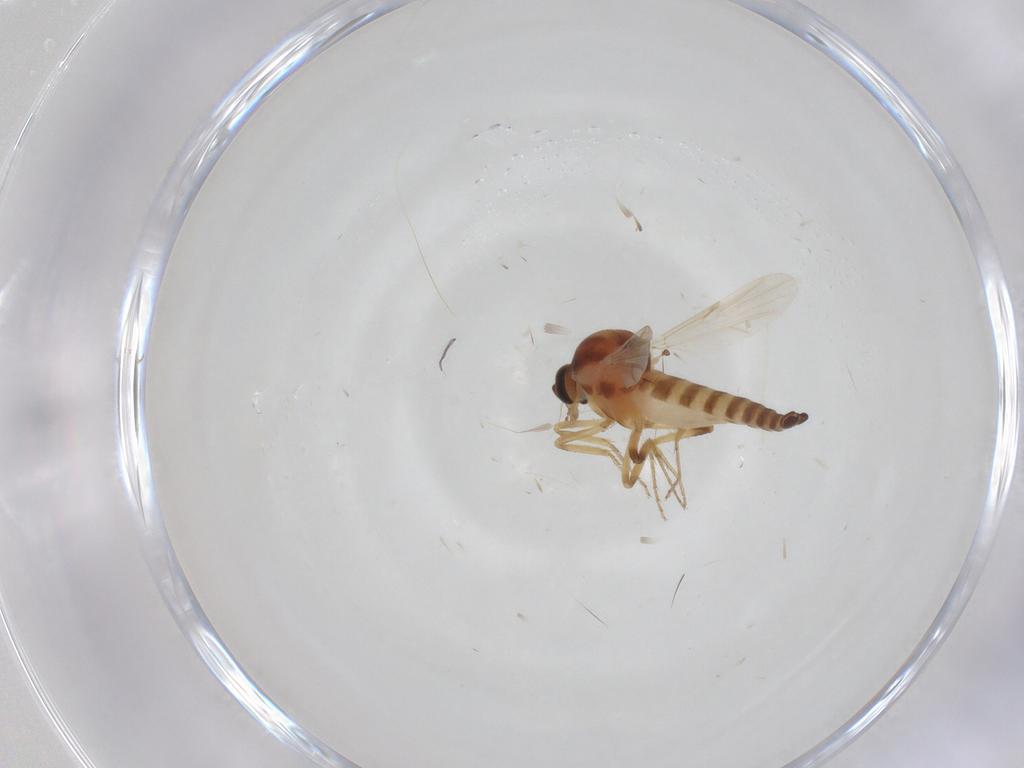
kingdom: Animalia
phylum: Arthropoda
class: Insecta
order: Diptera
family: Ceratopogonidae
